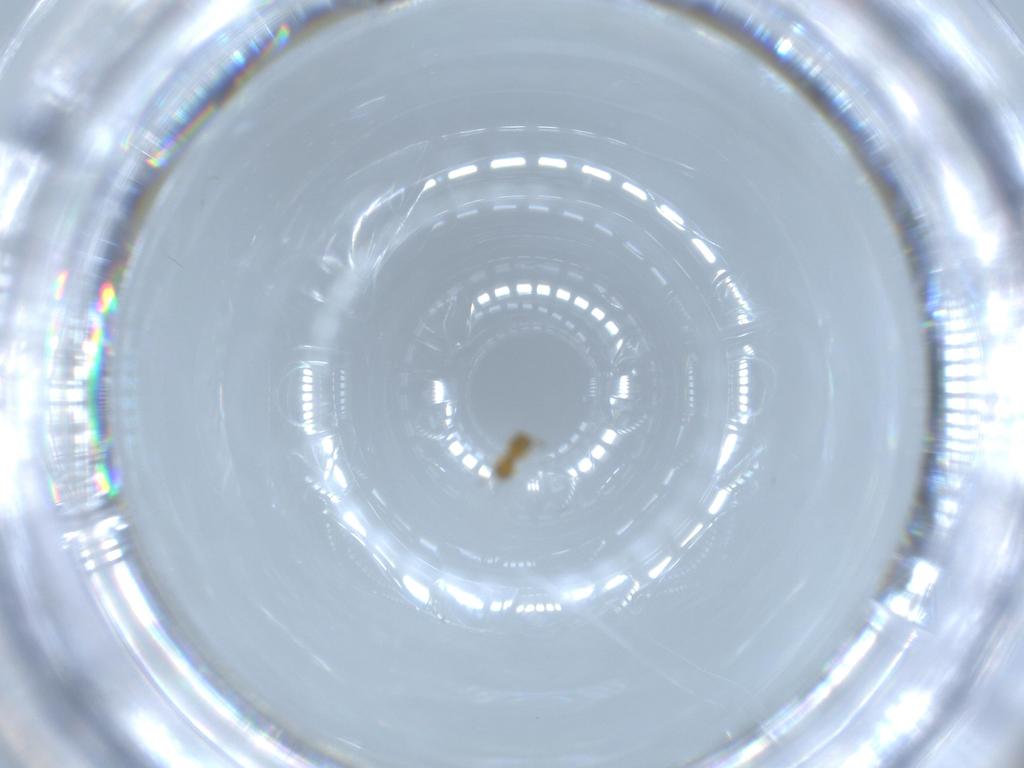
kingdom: Animalia
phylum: Arthropoda
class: Insecta
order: Hymenoptera
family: Platygastridae
